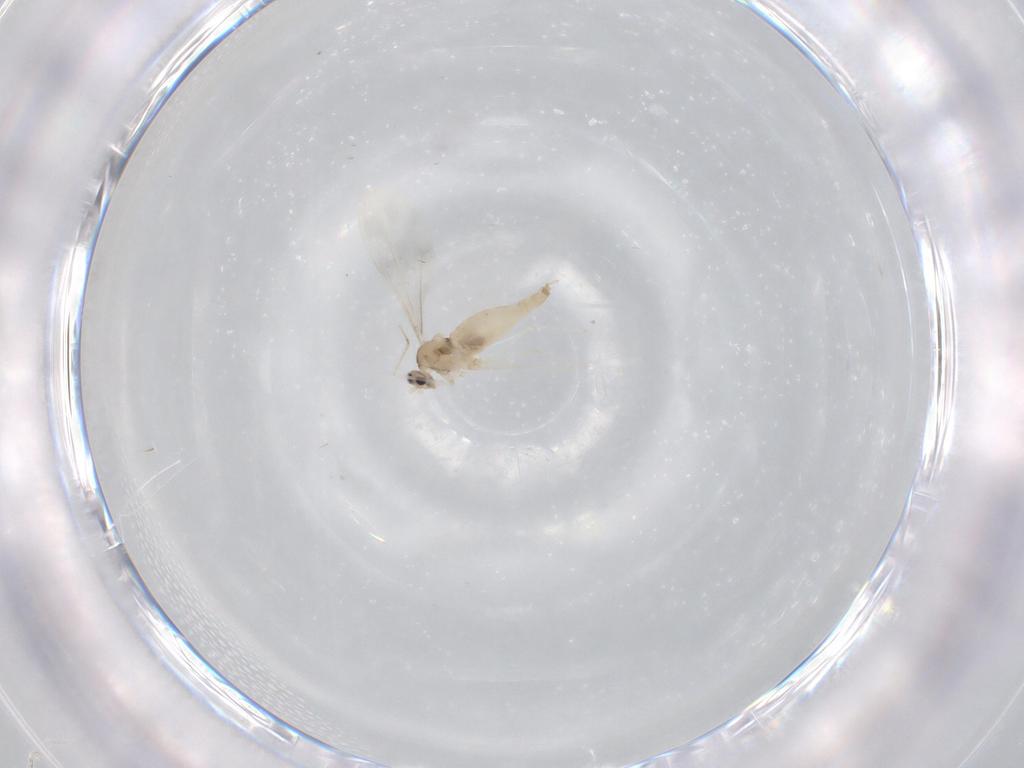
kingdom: Animalia
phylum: Arthropoda
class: Insecta
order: Diptera
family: Cecidomyiidae
